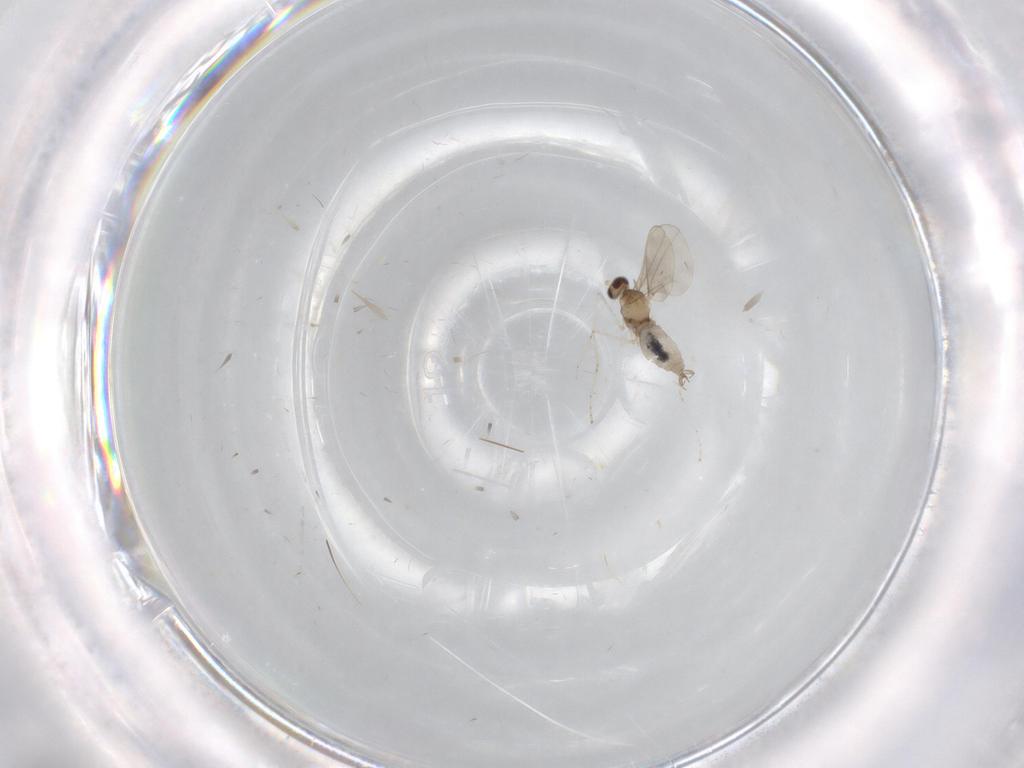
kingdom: Animalia
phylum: Arthropoda
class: Insecta
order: Diptera
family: Cecidomyiidae
